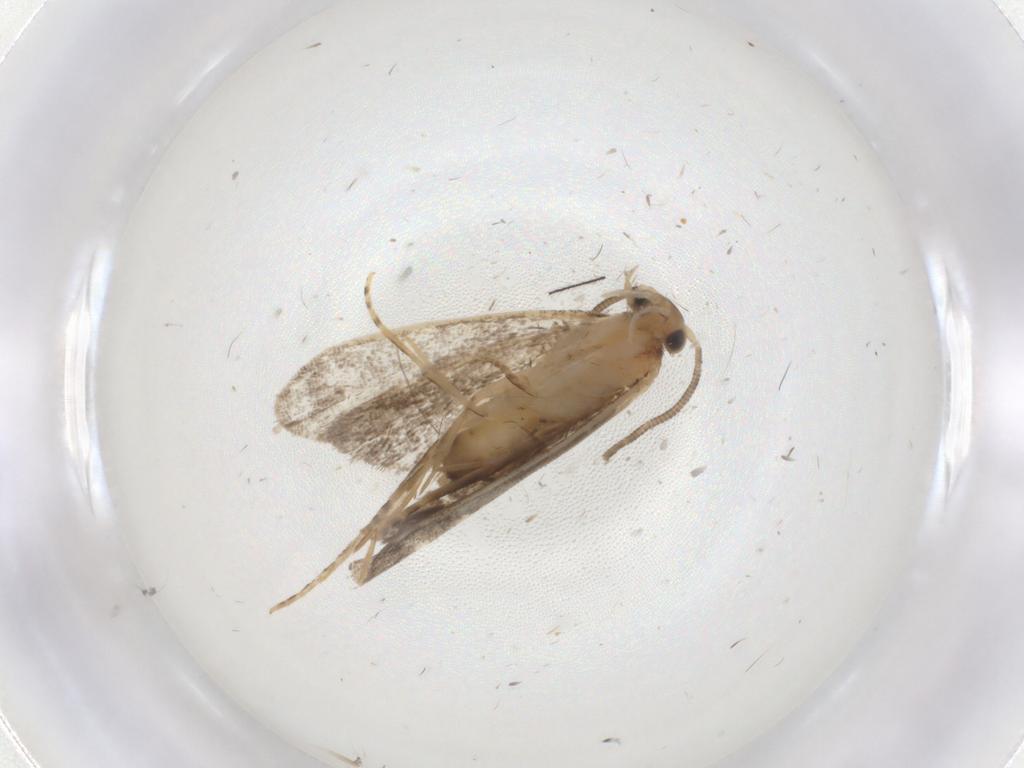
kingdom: Animalia
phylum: Arthropoda
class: Insecta
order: Lepidoptera
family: Dryadaulidae
